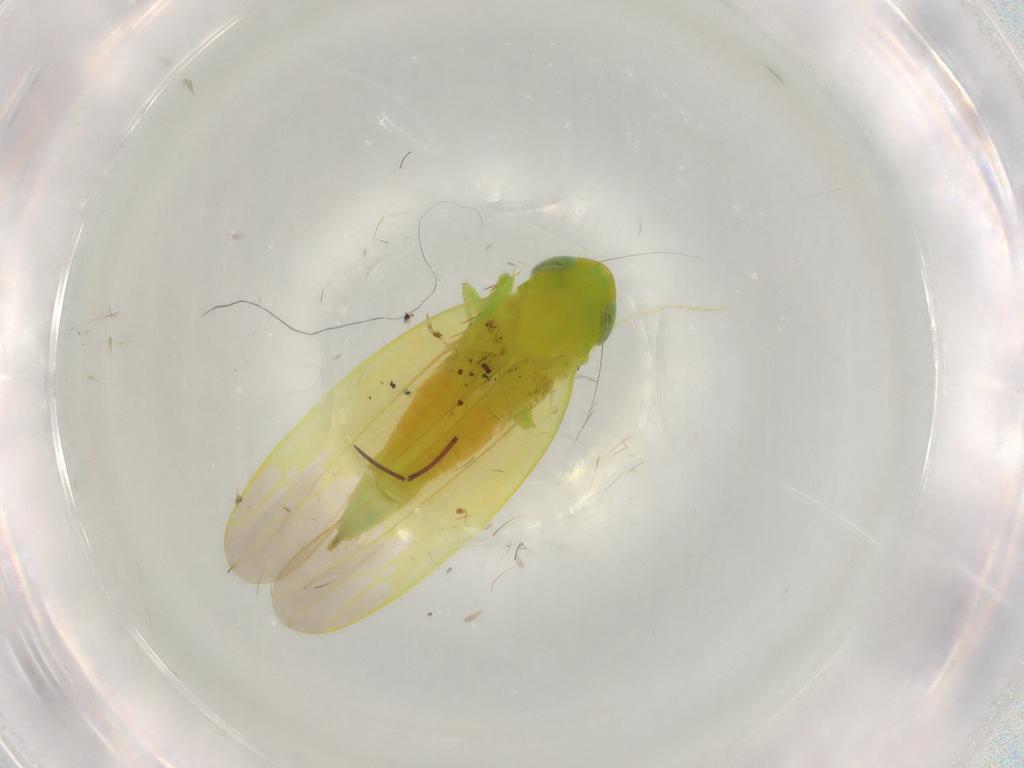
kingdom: Animalia
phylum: Arthropoda
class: Insecta
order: Hemiptera
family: Cicadellidae
